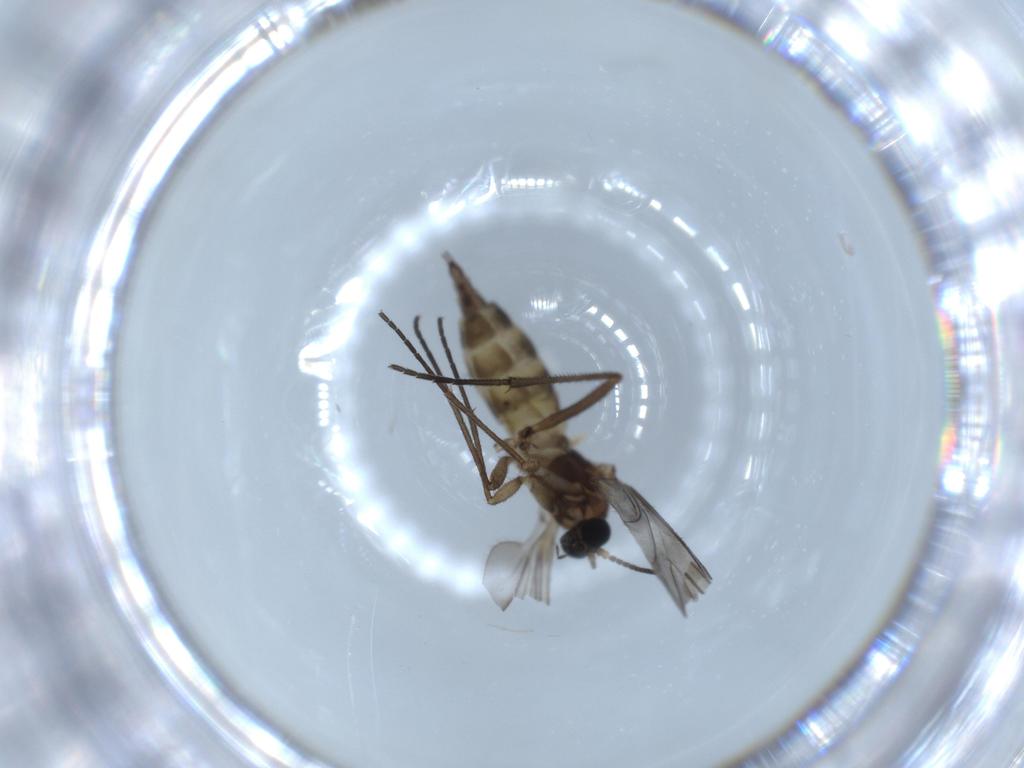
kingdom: Animalia
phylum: Arthropoda
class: Insecta
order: Diptera
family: Sciaridae
